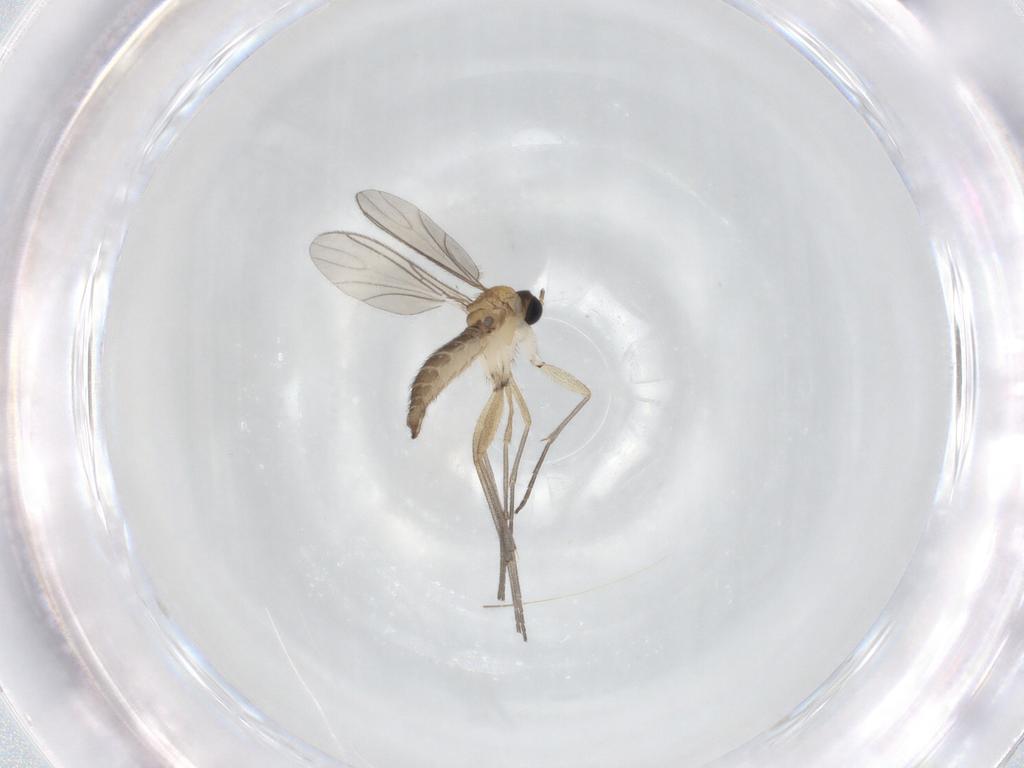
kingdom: Animalia
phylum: Arthropoda
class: Insecta
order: Diptera
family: Sciaridae
